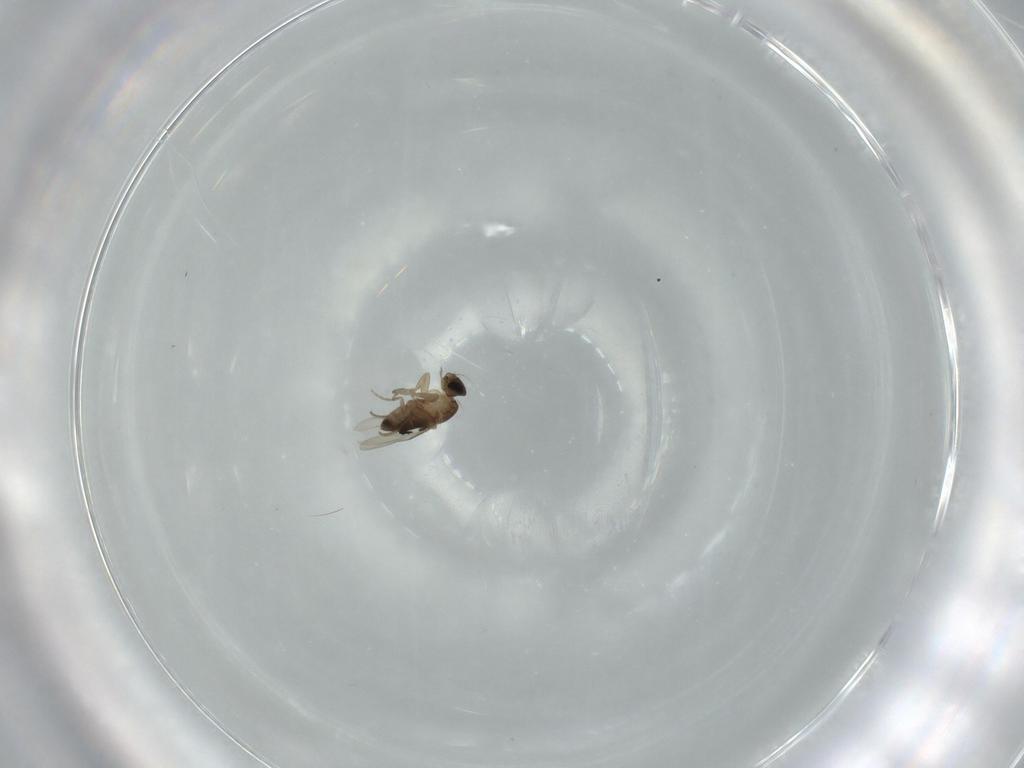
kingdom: Animalia
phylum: Arthropoda
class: Insecta
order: Diptera
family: Phoridae
